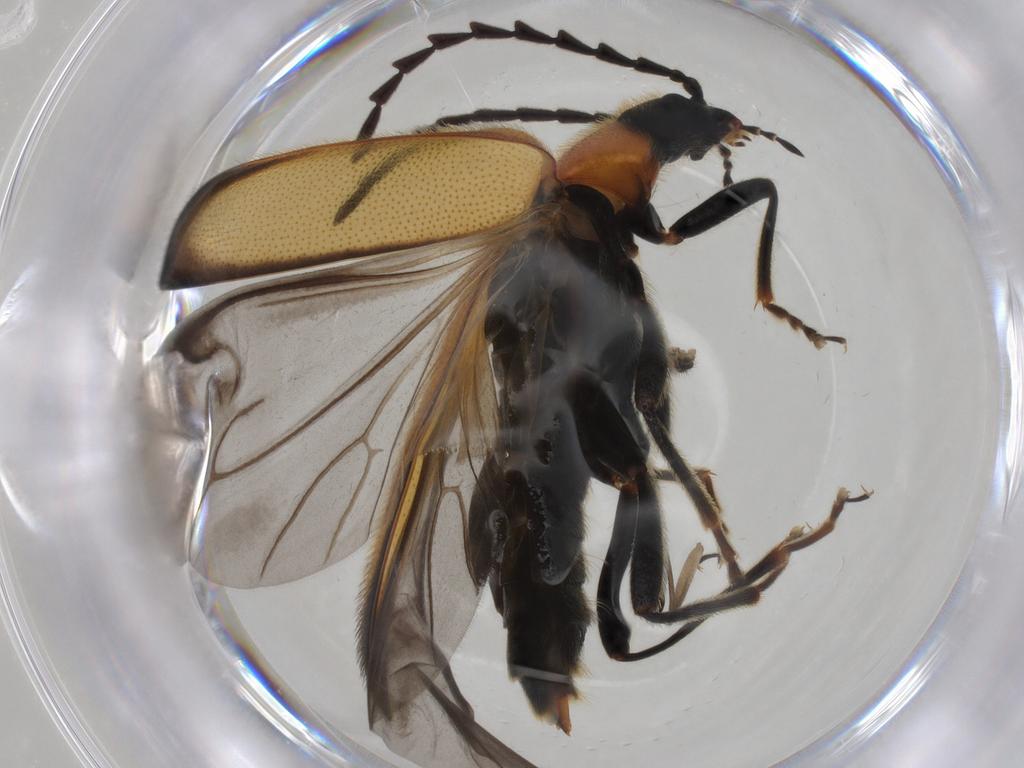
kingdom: Animalia
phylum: Arthropoda
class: Insecta
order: Coleoptera
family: Pyrochroidae
